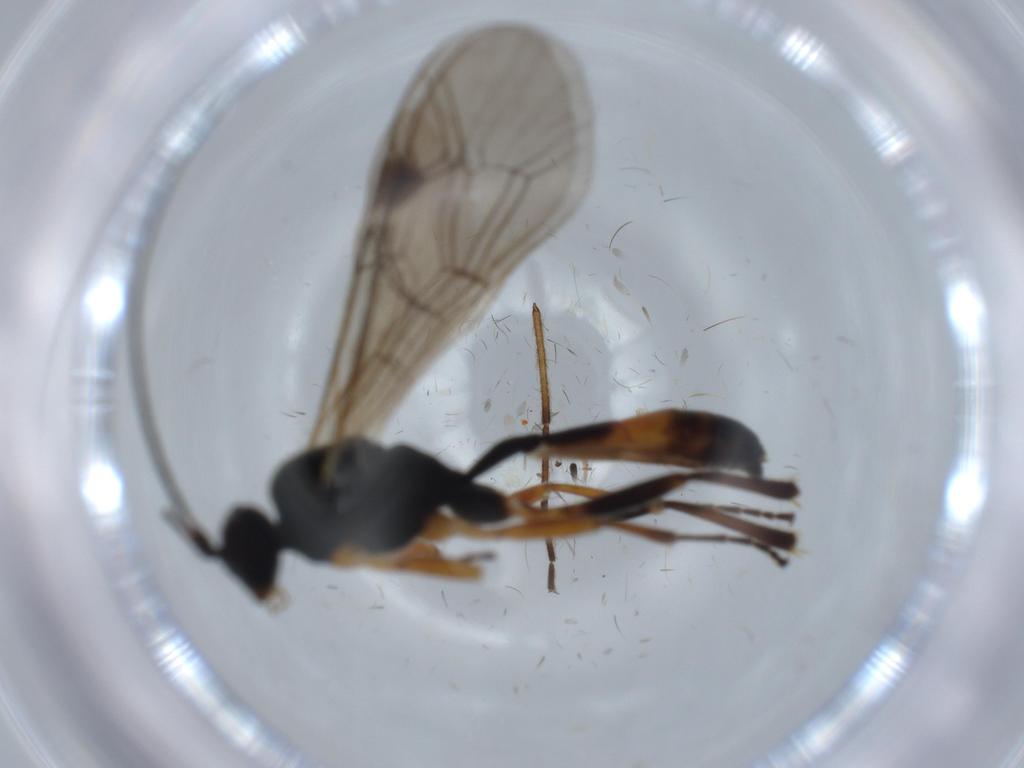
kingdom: Animalia
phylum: Arthropoda
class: Insecta
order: Hymenoptera
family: Ichneumonidae
